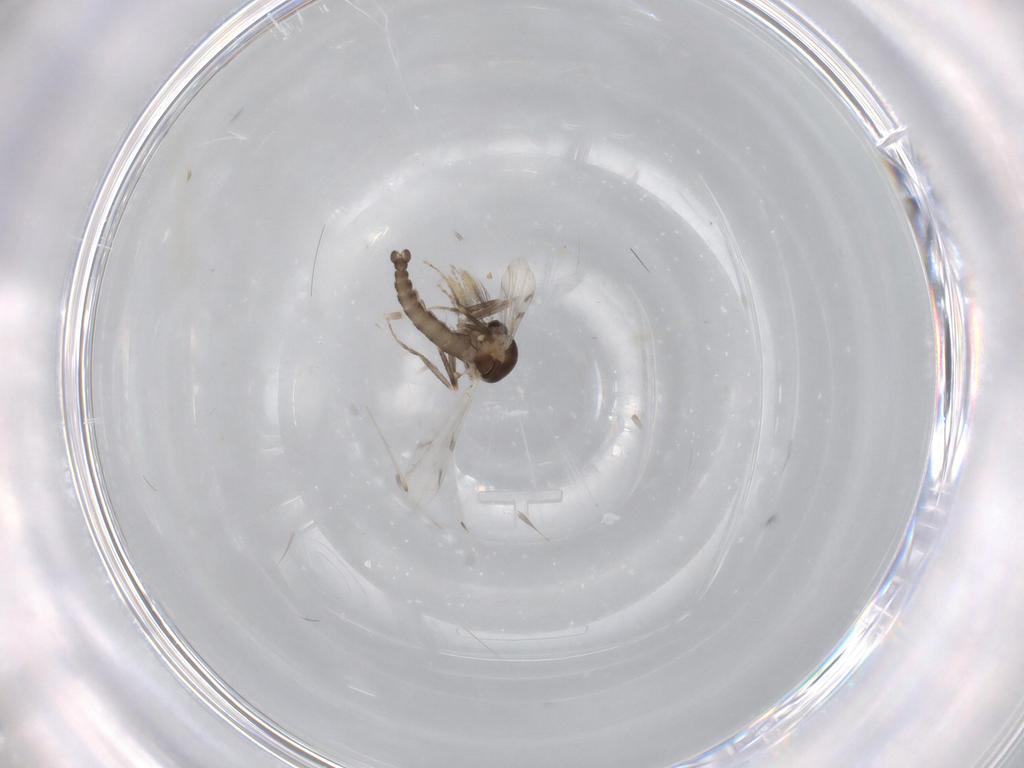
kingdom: Animalia
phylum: Arthropoda
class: Insecta
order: Diptera
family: Ceratopogonidae
